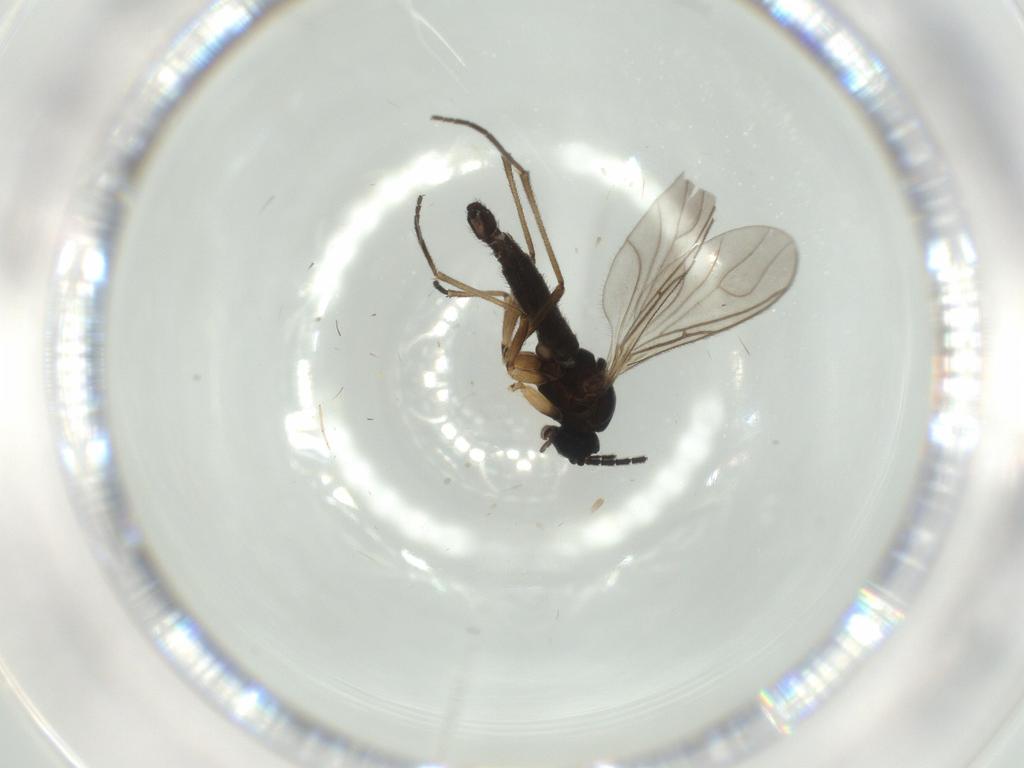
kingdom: Animalia
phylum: Arthropoda
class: Insecta
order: Diptera
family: Sciaridae
